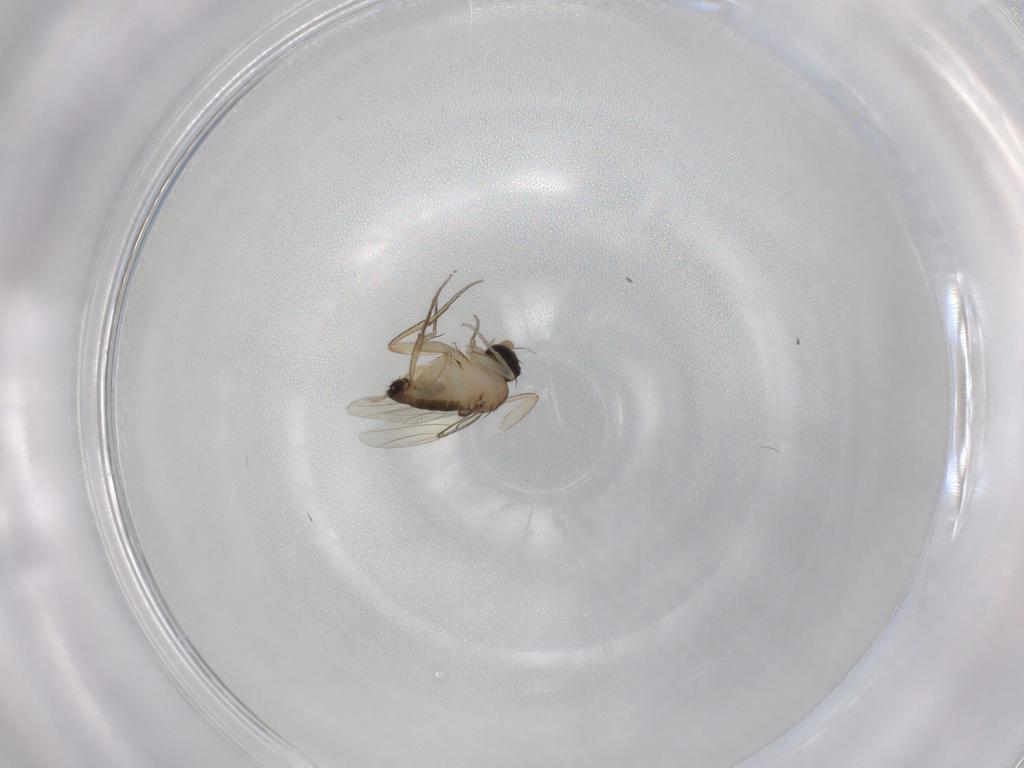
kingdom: Animalia
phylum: Arthropoda
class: Insecta
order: Diptera
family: Phoridae
